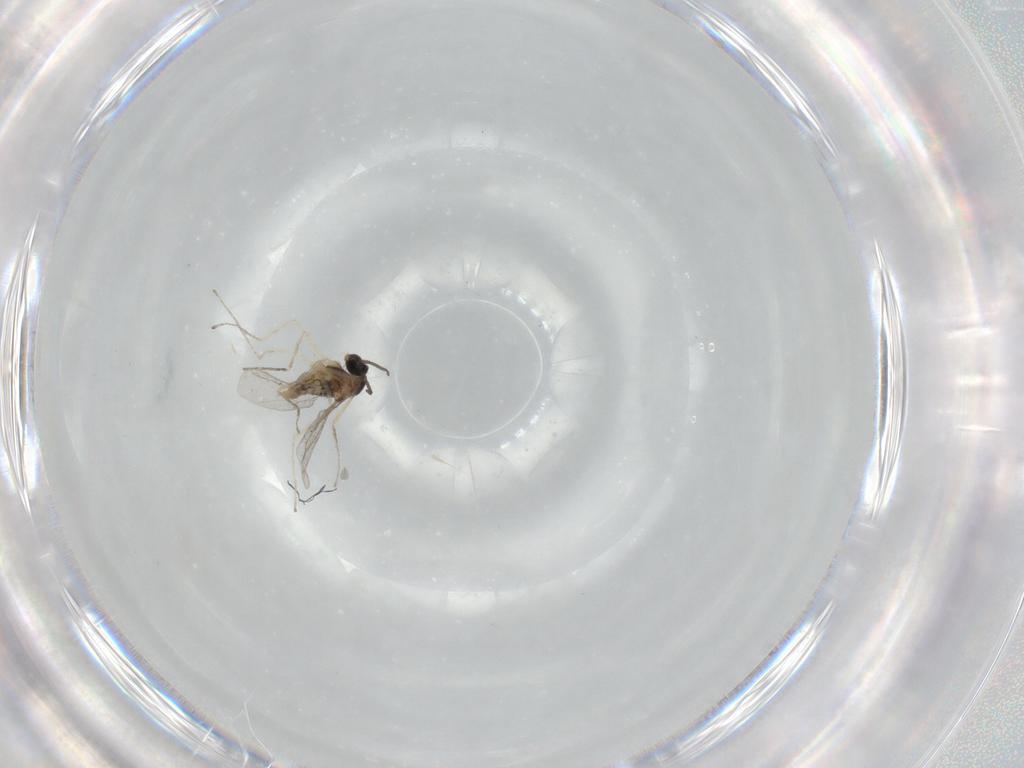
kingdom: Animalia
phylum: Arthropoda
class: Insecta
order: Diptera
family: Cecidomyiidae
